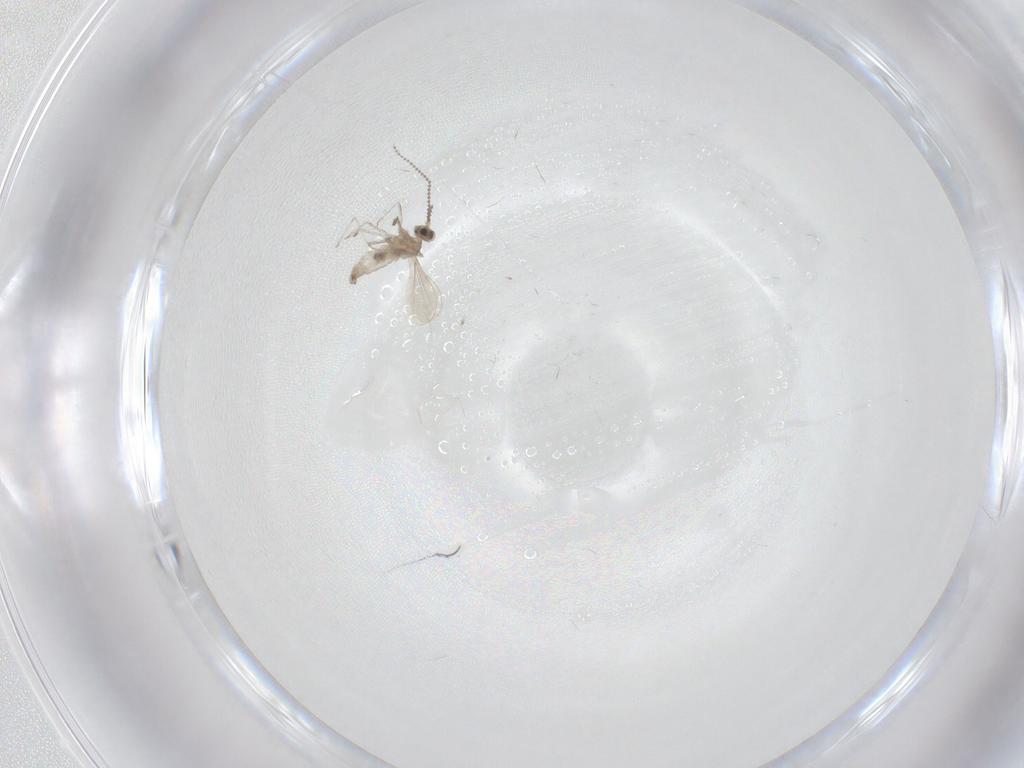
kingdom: Animalia
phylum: Arthropoda
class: Insecta
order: Diptera
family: Cecidomyiidae
